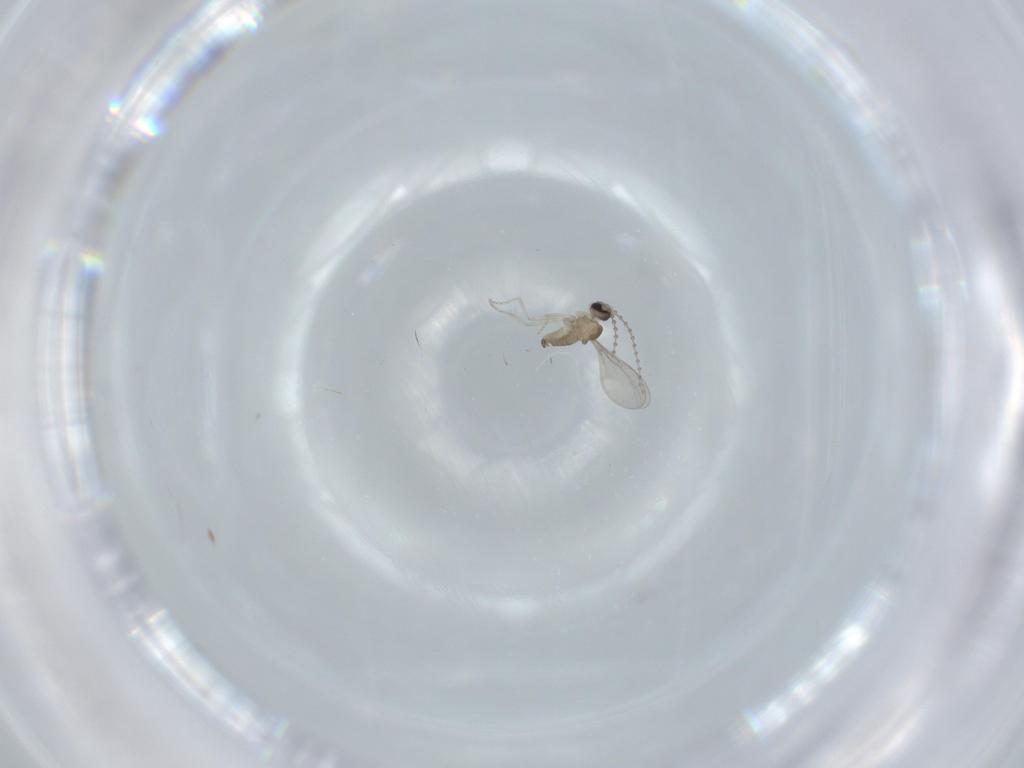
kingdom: Animalia
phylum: Arthropoda
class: Insecta
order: Diptera
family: Cecidomyiidae
